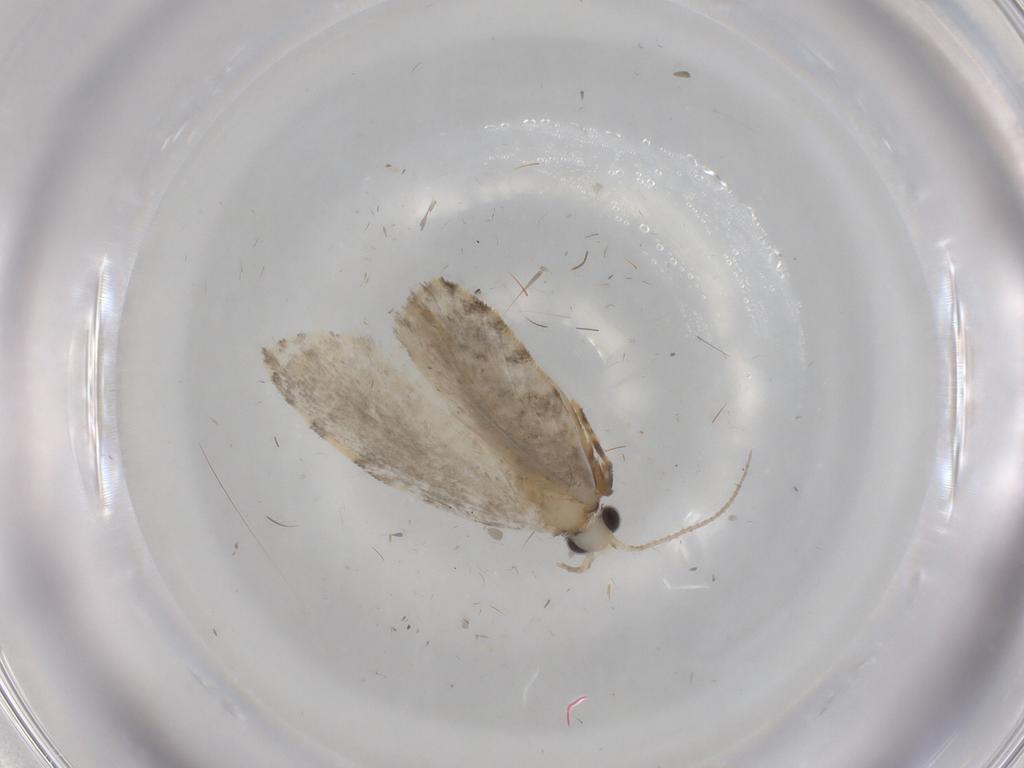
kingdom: Animalia
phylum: Arthropoda
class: Insecta
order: Lepidoptera
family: Psychidae
